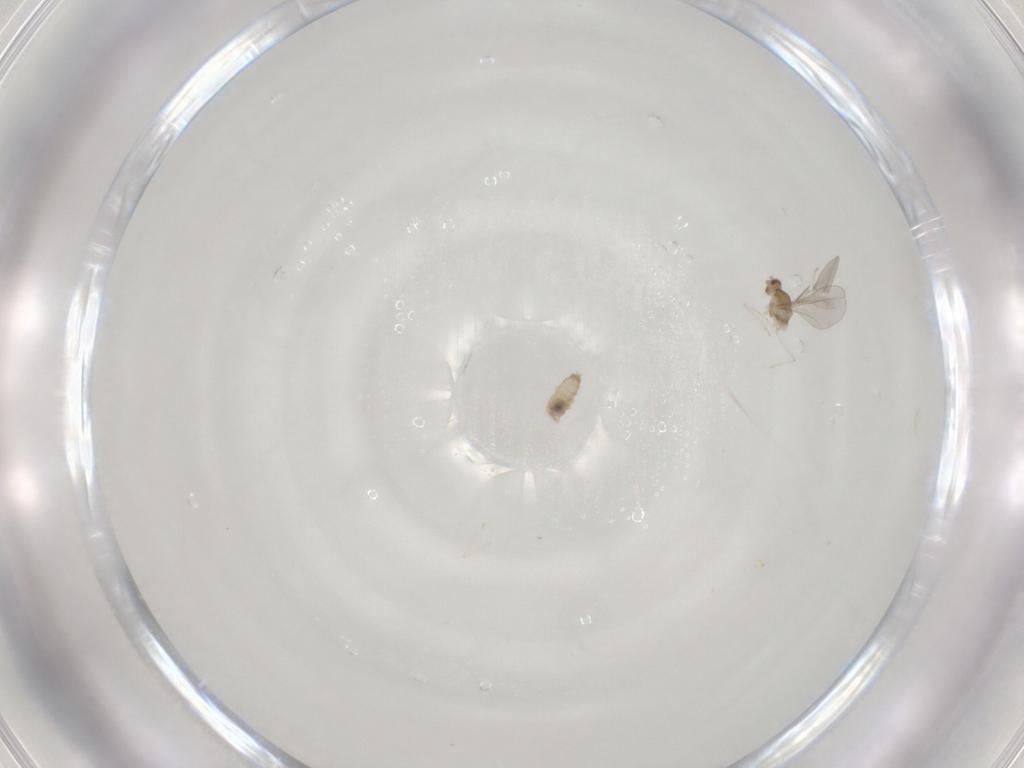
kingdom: Animalia
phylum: Arthropoda
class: Insecta
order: Diptera
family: Cecidomyiidae
